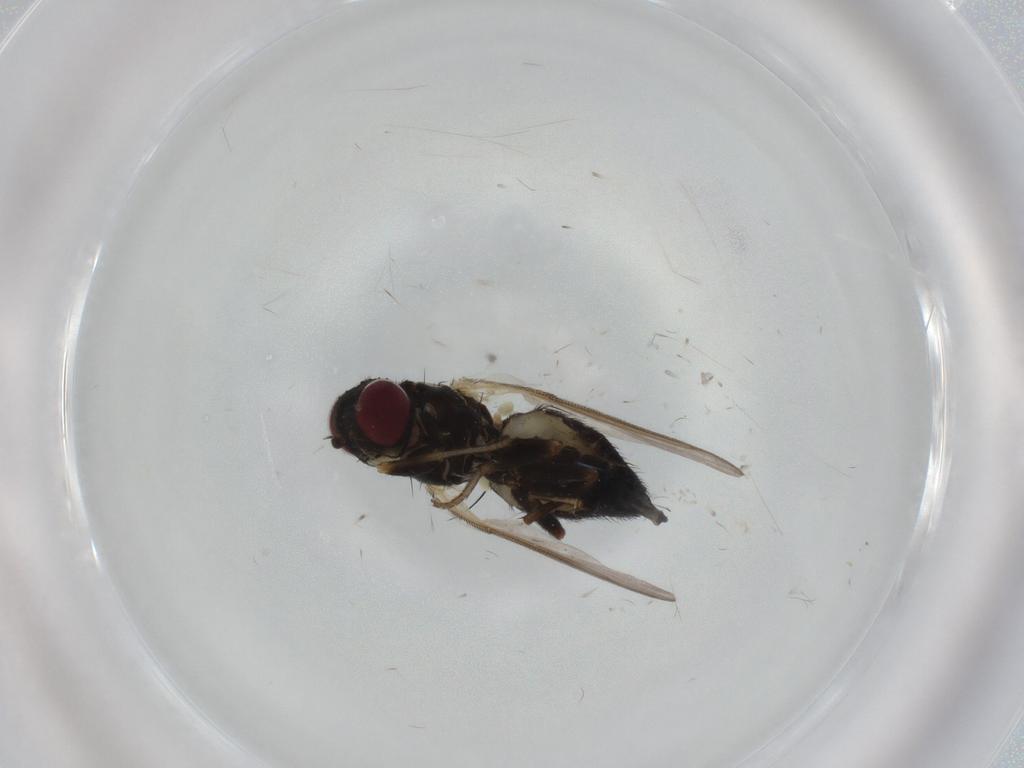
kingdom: Animalia
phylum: Arthropoda
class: Insecta
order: Diptera
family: Agromyzidae
